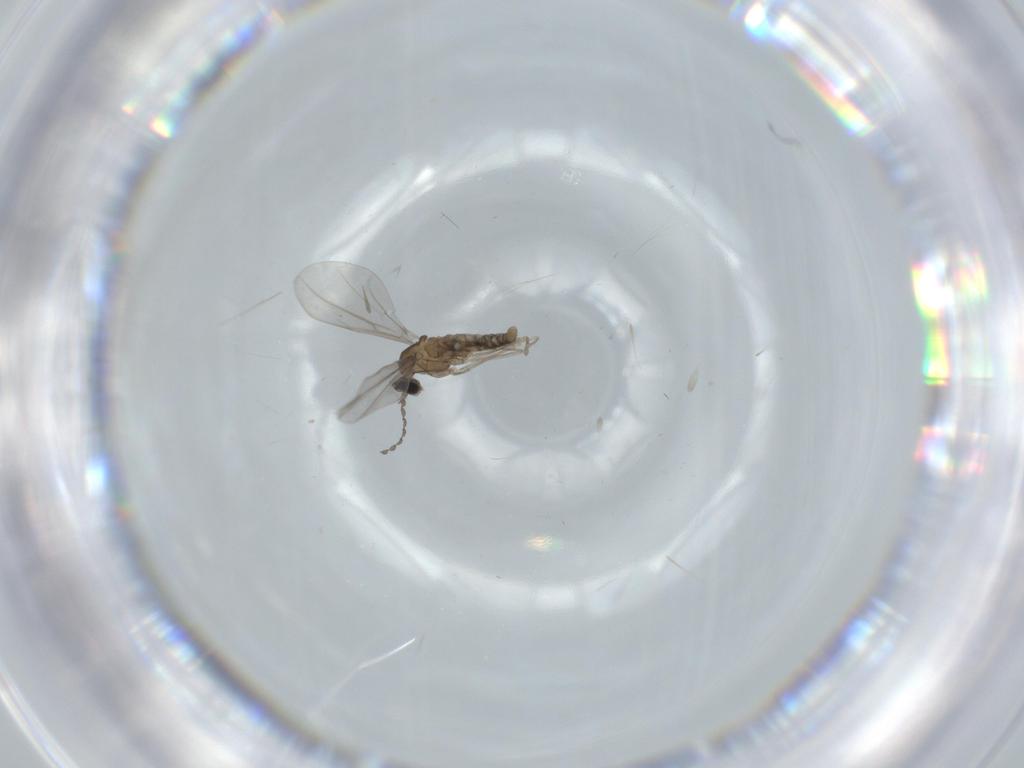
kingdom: Animalia
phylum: Arthropoda
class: Insecta
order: Diptera
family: Cecidomyiidae
